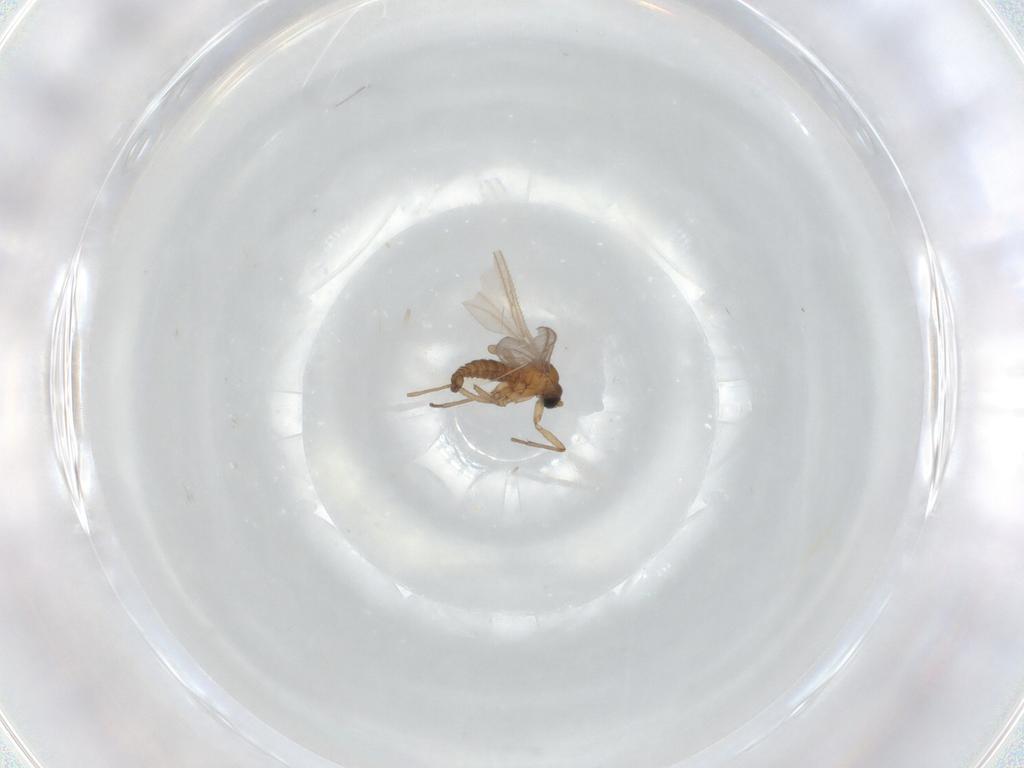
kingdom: Animalia
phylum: Arthropoda
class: Insecta
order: Diptera
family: Sciaridae
